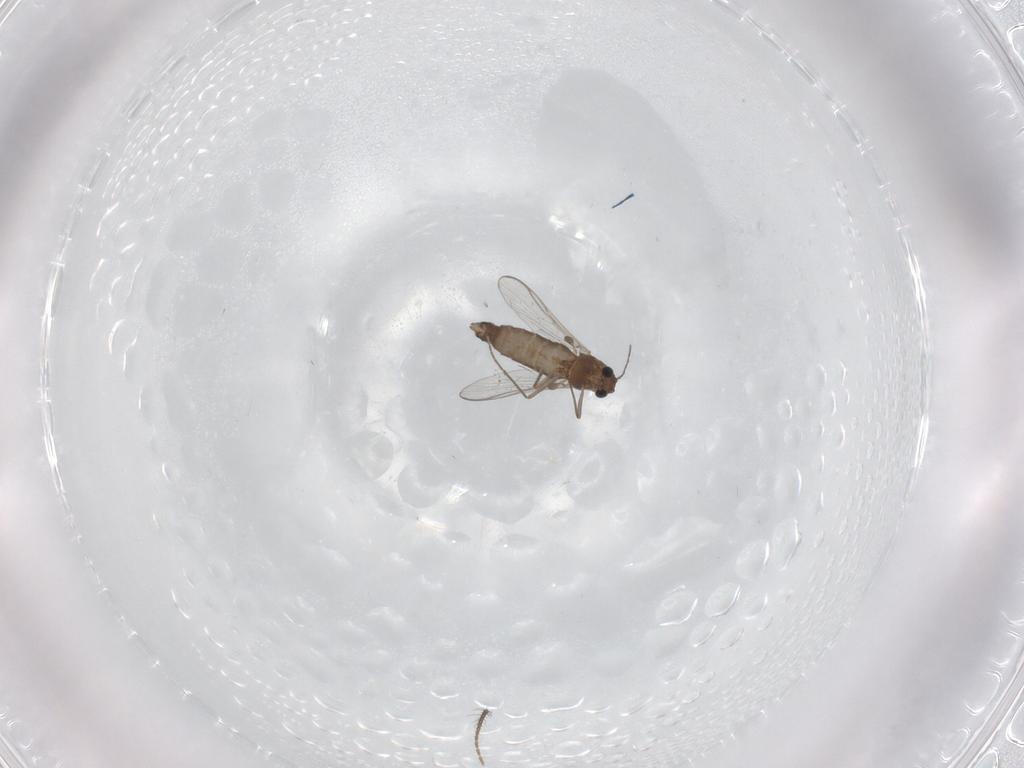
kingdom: Animalia
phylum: Arthropoda
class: Insecta
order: Diptera
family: Chironomidae
